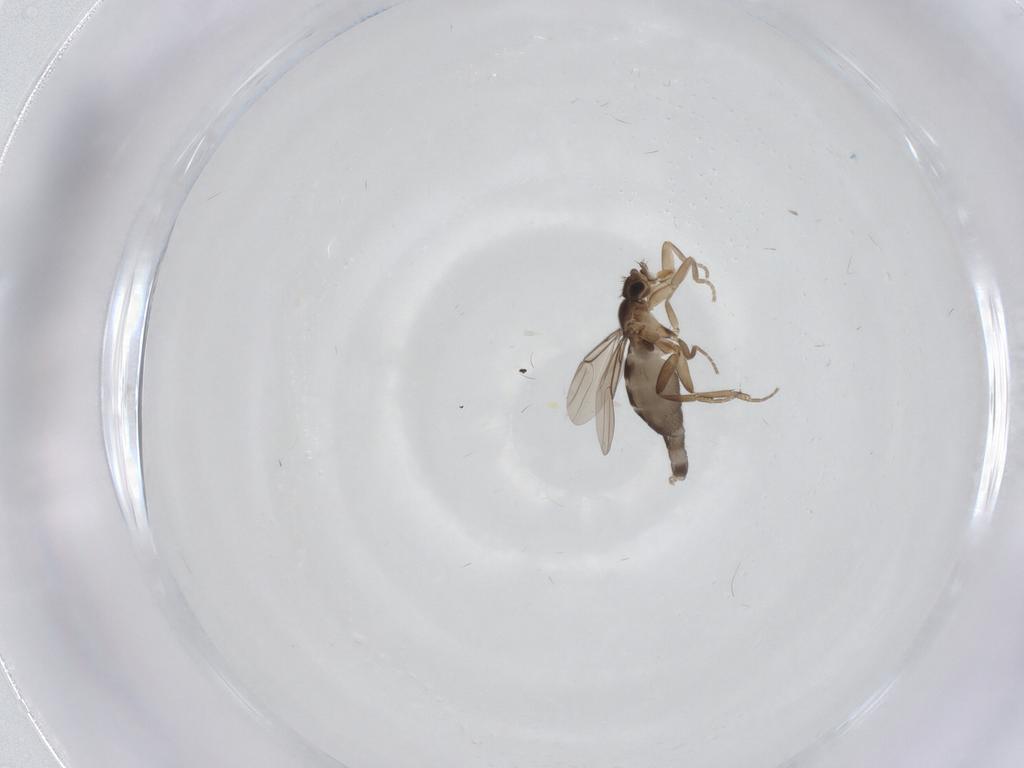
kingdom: Animalia
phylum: Arthropoda
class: Insecta
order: Diptera
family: Phoridae
